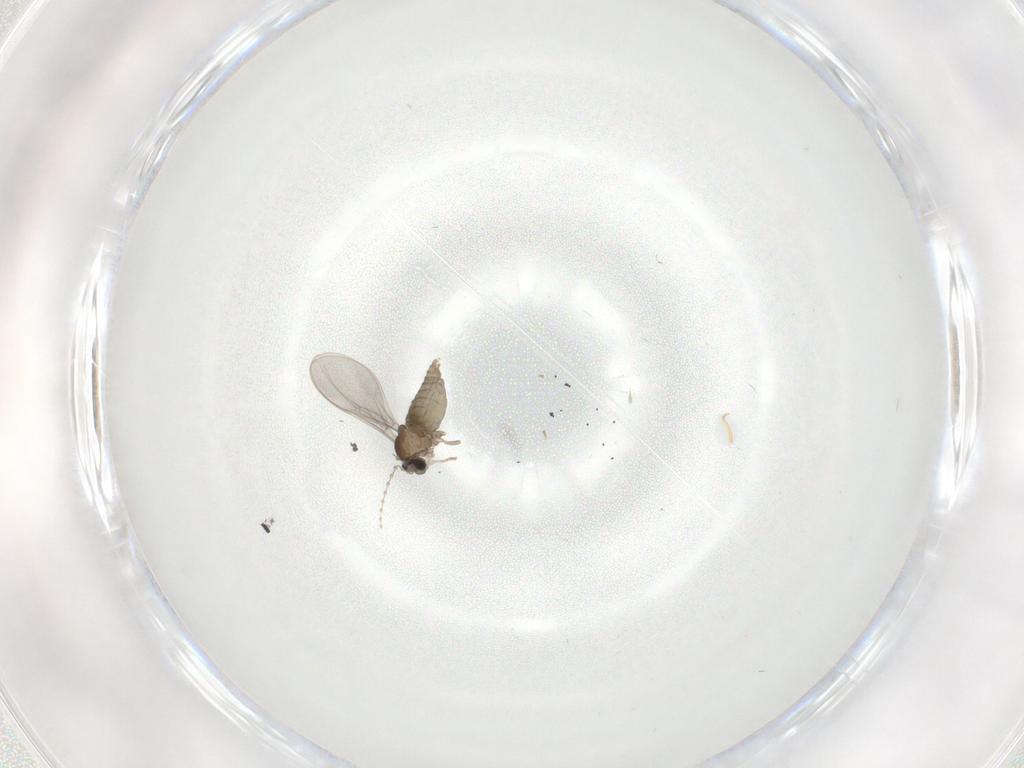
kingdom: Animalia
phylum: Arthropoda
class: Insecta
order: Diptera
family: Cecidomyiidae
